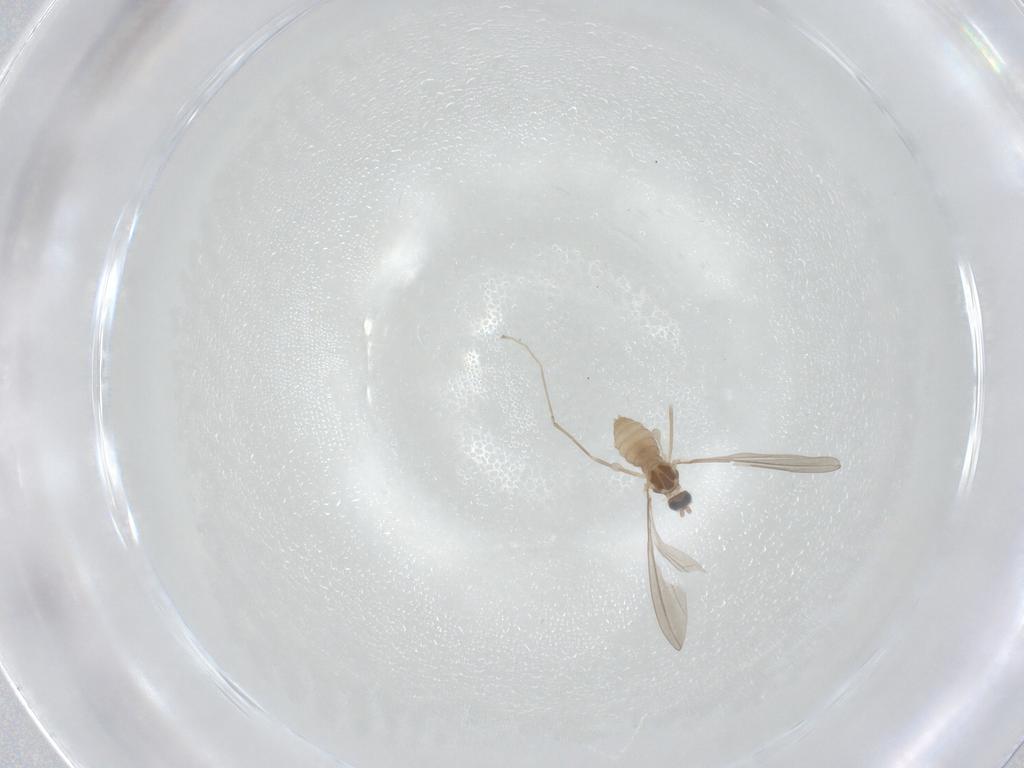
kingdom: Animalia
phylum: Arthropoda
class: Insecta
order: Diptera
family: Cecidomyiidae
